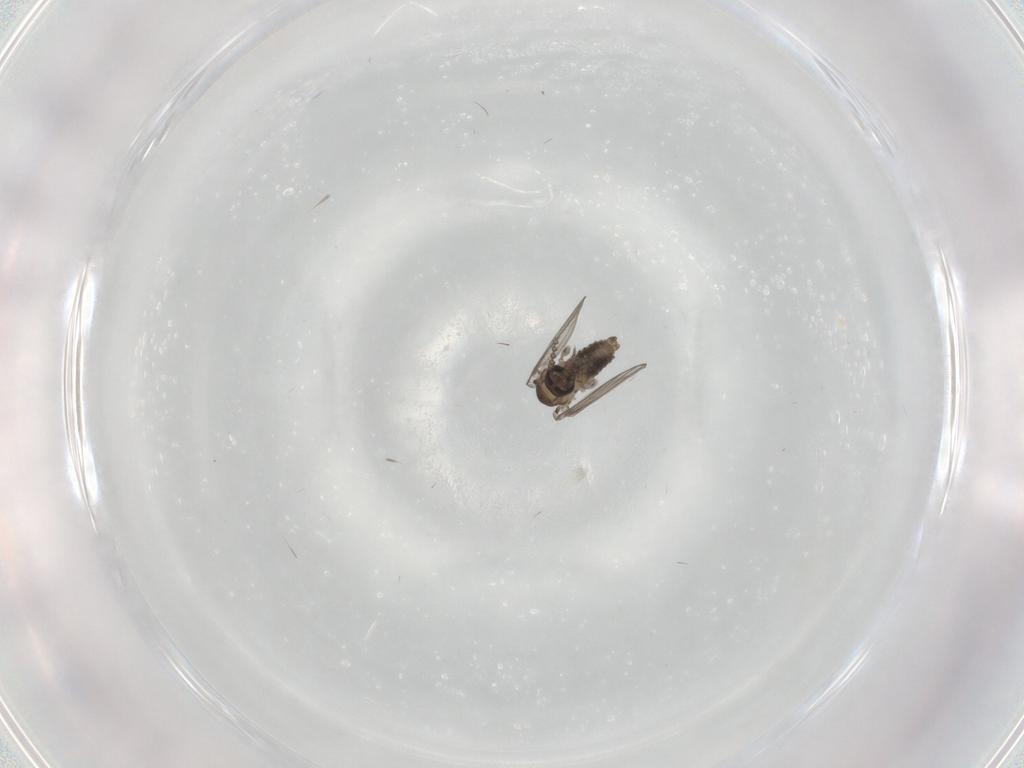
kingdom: Animalia
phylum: Arthropoda
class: Insecta
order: Diptera
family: Psychodidae
